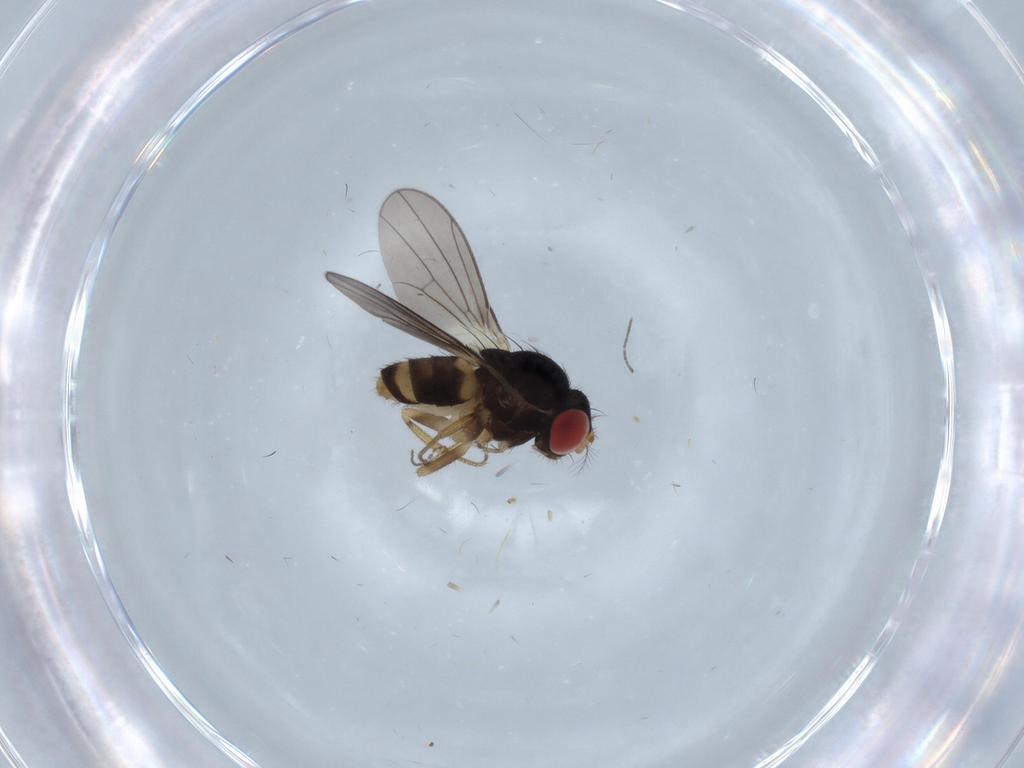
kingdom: Animalia
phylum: Arthropoda
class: Insecta
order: Diptera
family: Drosophilidae
